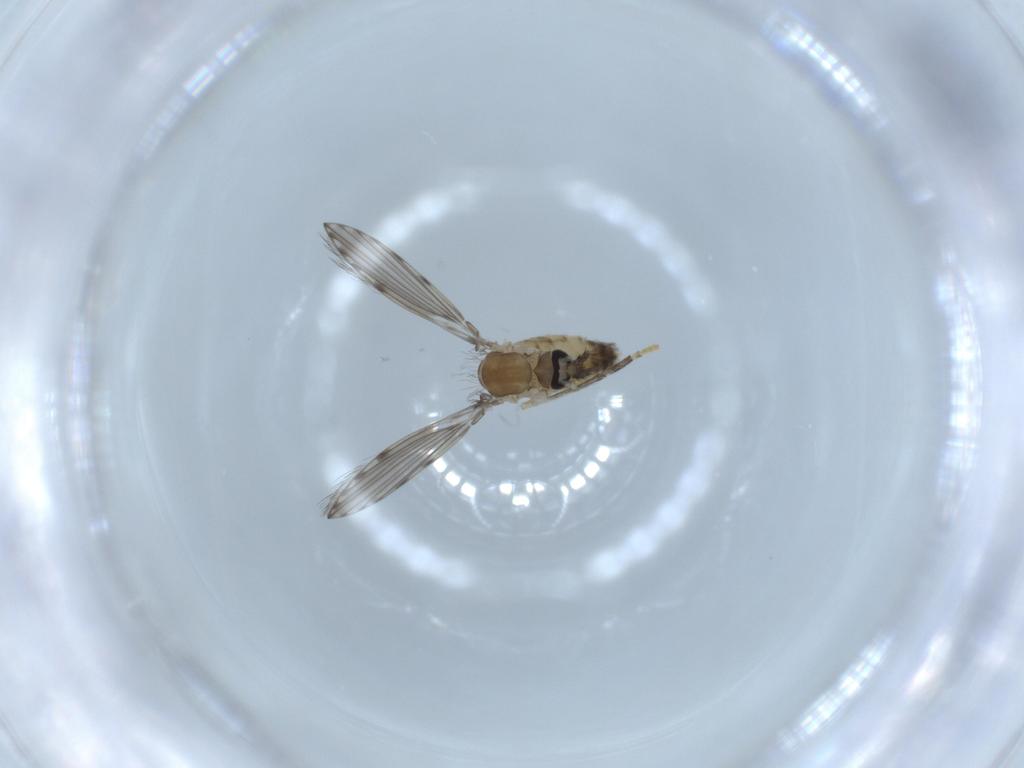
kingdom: Animalia
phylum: Arthropoda
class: Insecta
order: Diptera
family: Psychodidae
